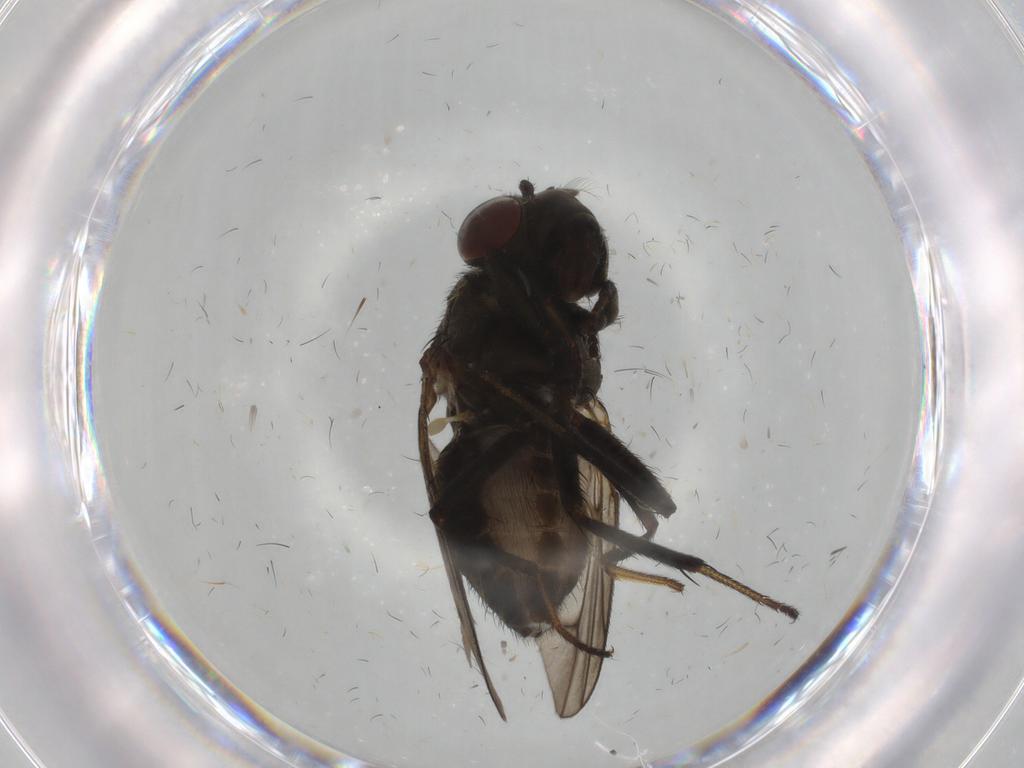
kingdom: Animalia
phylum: Arthropoda
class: Insecta
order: Diptera
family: Ephydridae
